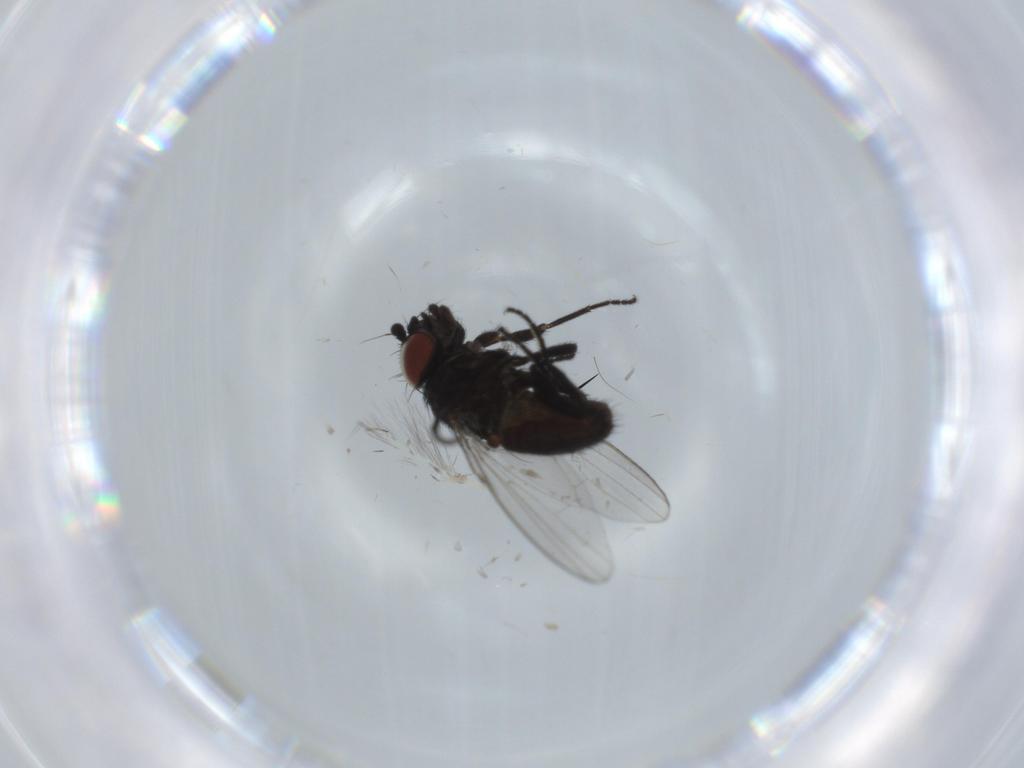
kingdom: Animalia
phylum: Arthropoda
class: Insecta
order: Diptera
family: Milichiidae
